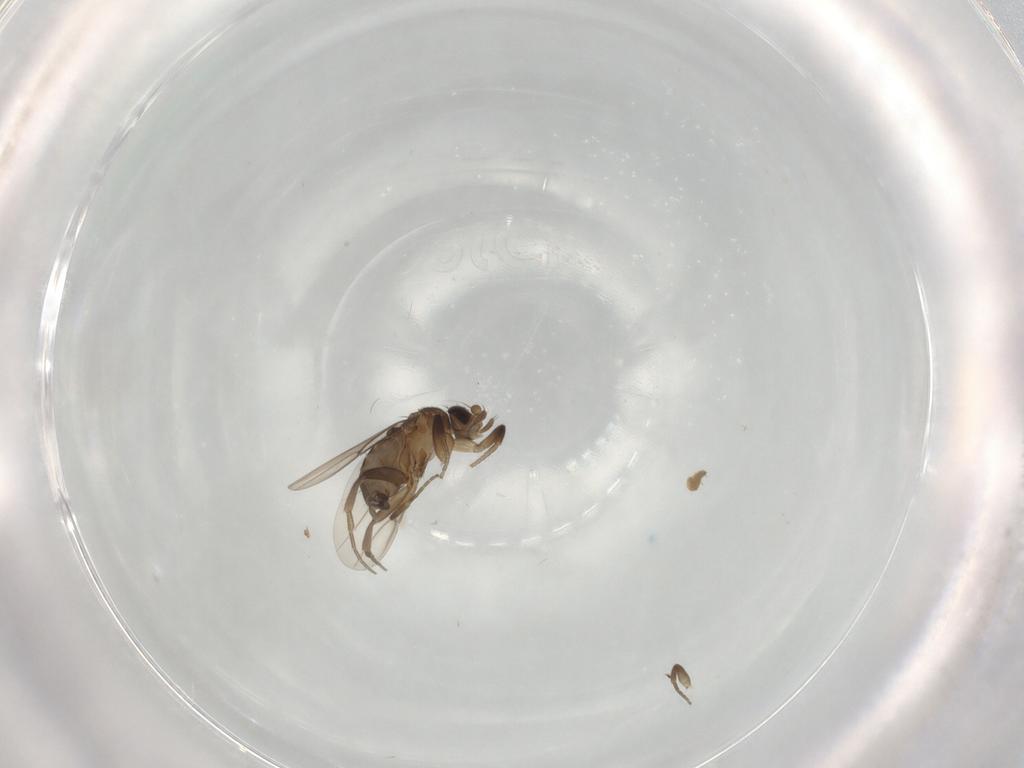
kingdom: Animalia
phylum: Arthropoda
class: Insecta
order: Diptera
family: Phoridae
